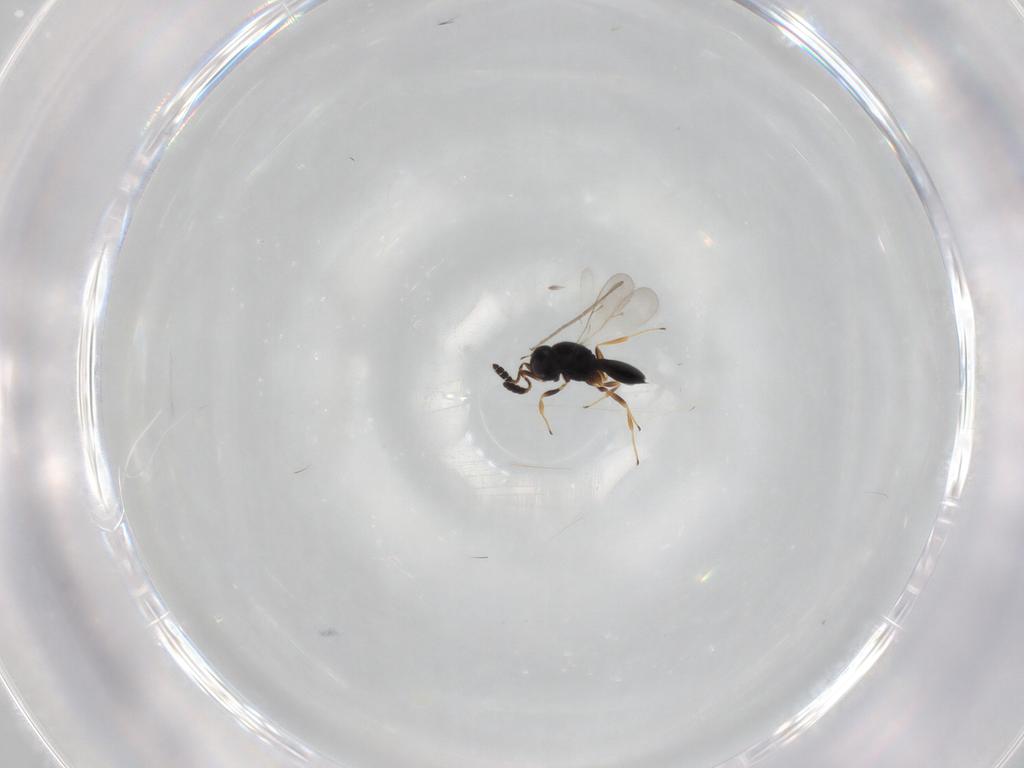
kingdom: Animalia
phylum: Arthropoda
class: Insecta
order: Hymenoptera
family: Scelionidae
